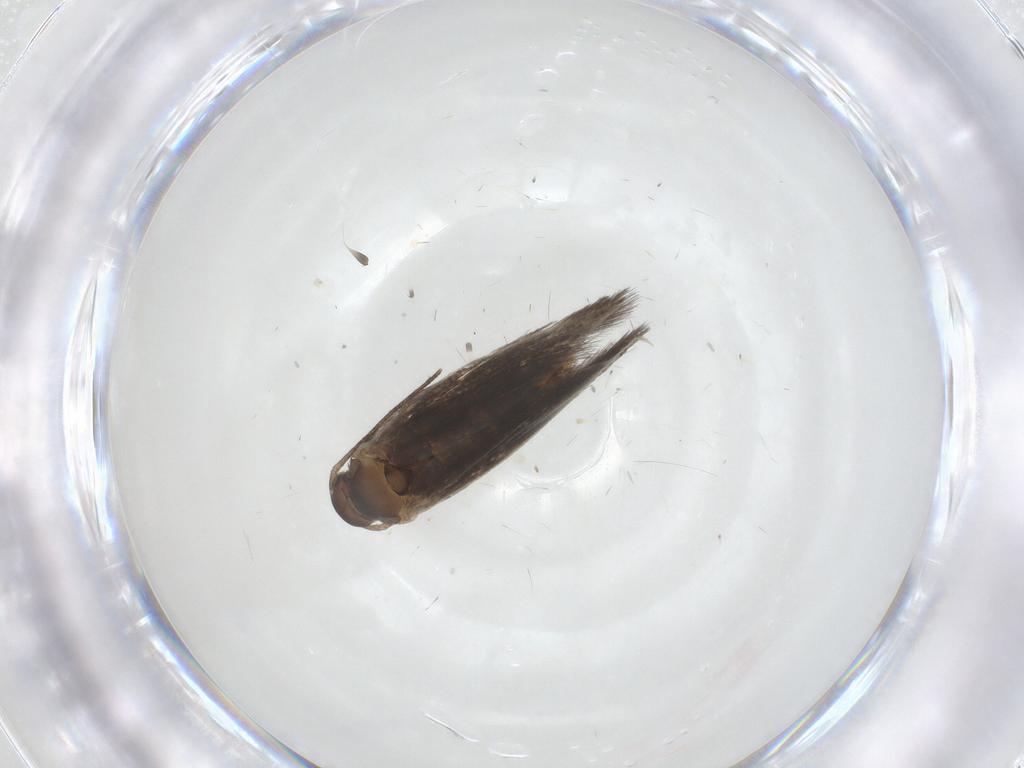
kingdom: Animalia
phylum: Arthropoda
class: Insecta
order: Lepidoptera
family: Elachistidae
